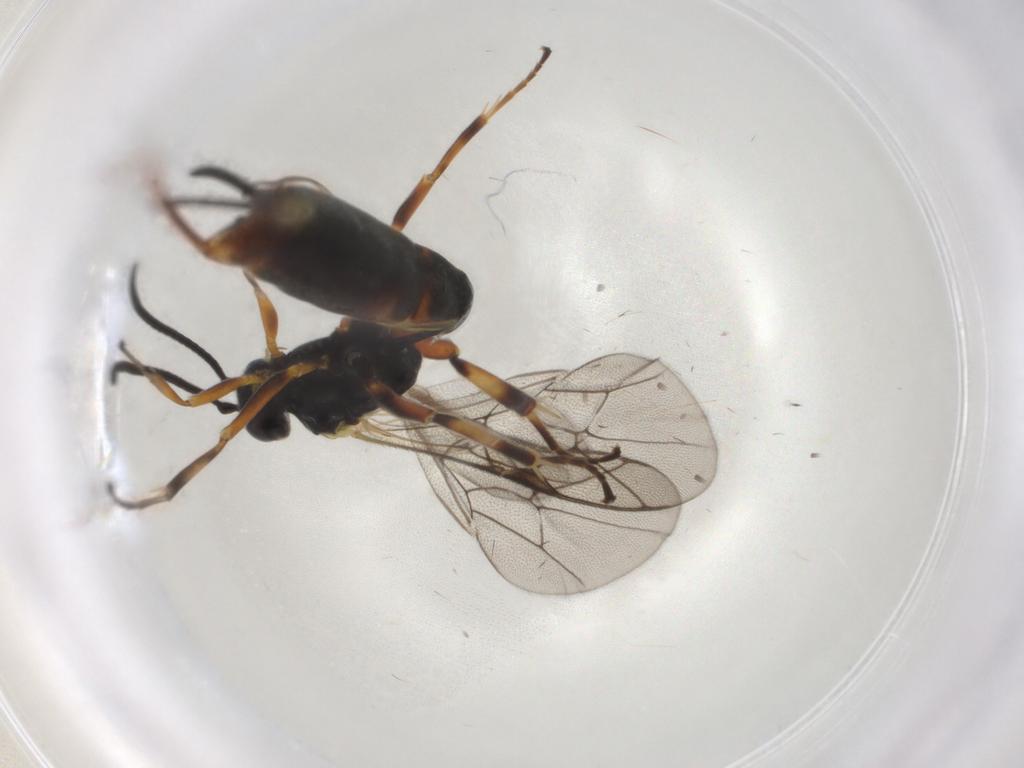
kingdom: Animalia
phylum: Arthropoda
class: Insecta
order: Hymenoptera
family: Ichneumonidae
